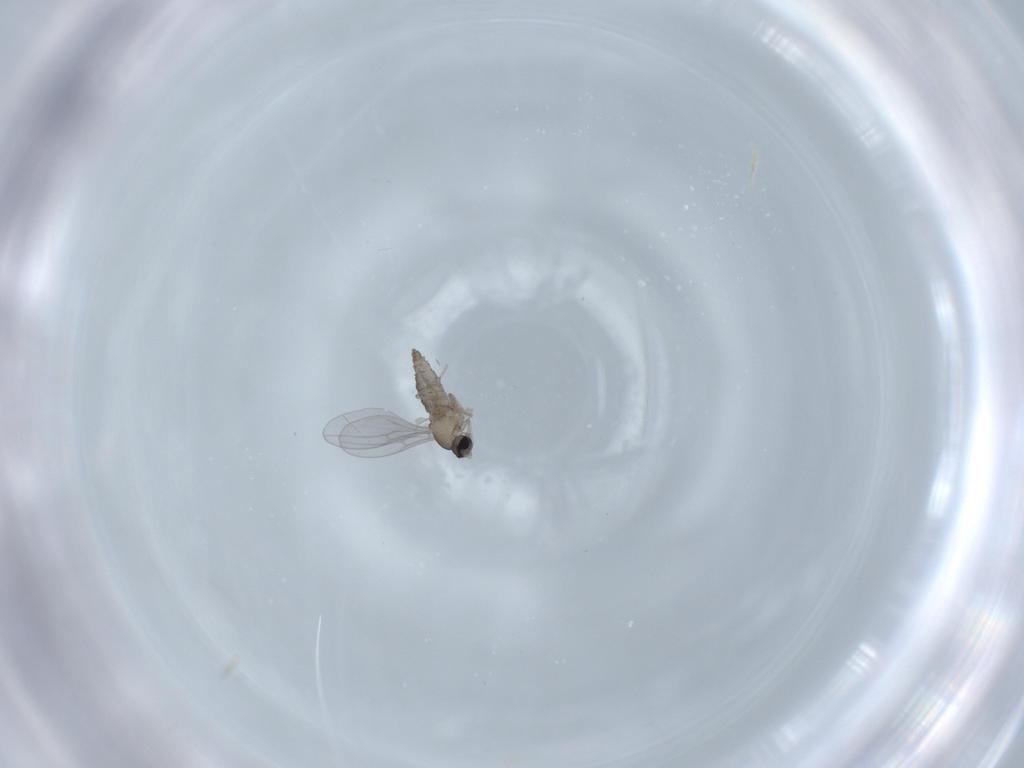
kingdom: Animalia
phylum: Arthropoda
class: Insecta
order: Diptera
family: Cecidomyiidae
